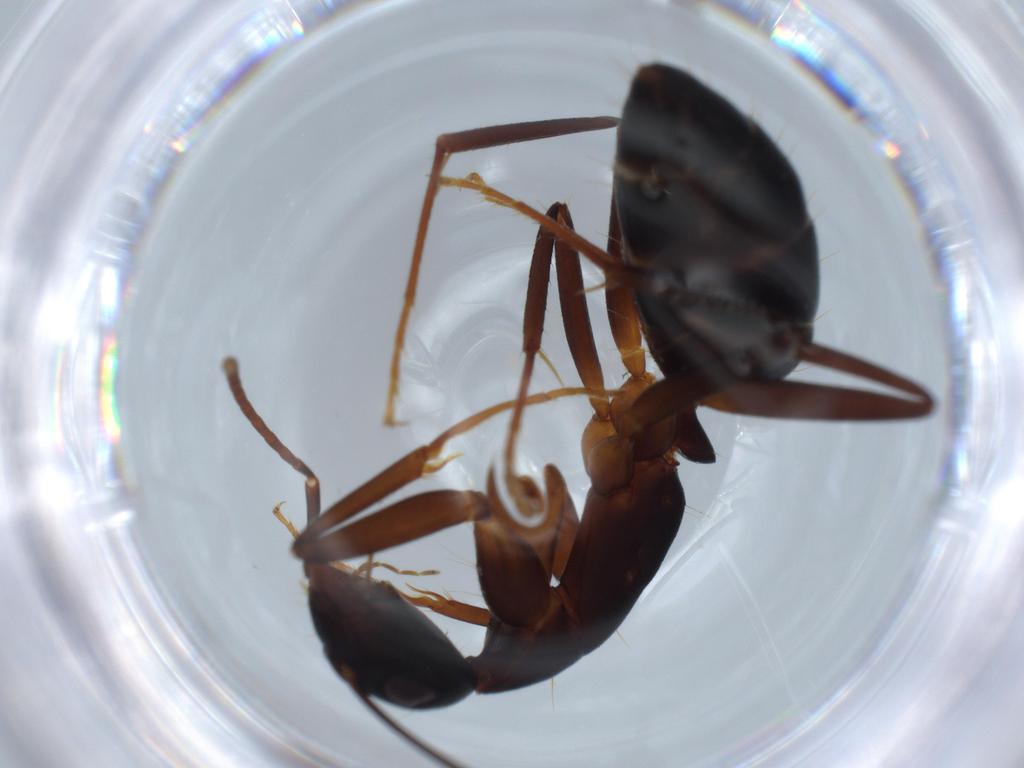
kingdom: Animalia
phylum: Arthropoda
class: Insecta
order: Hymenoptera
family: Formicidae
